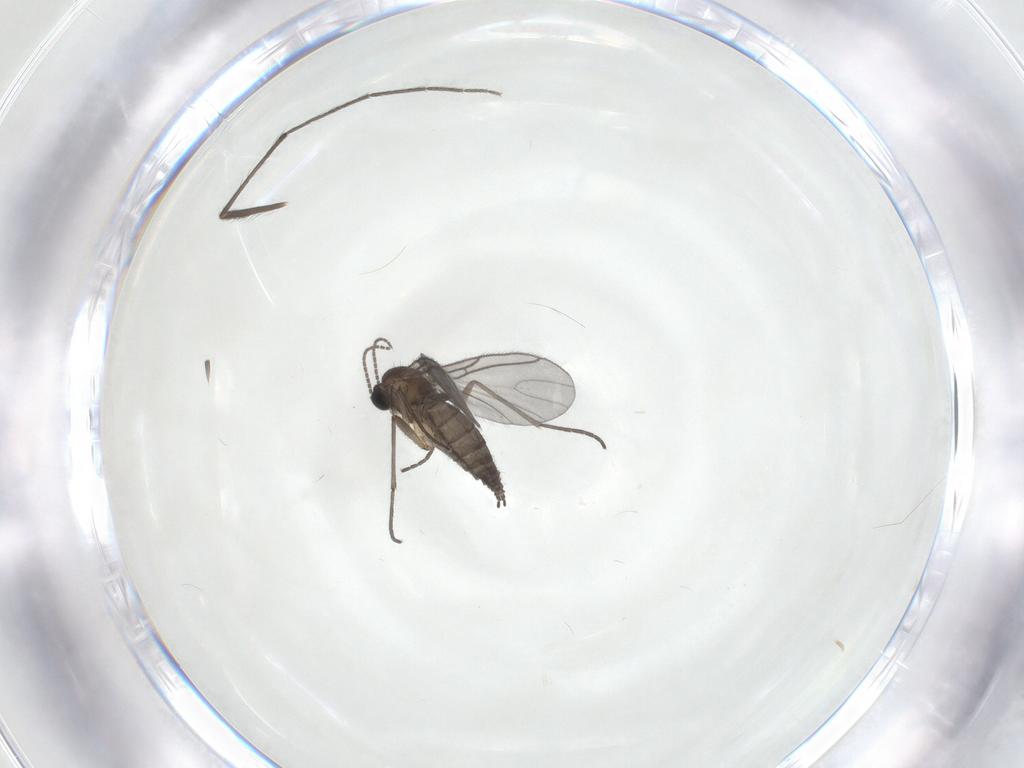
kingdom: Animalia
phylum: Arthropoda
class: Insecta
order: Diptera
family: Sciaridae
